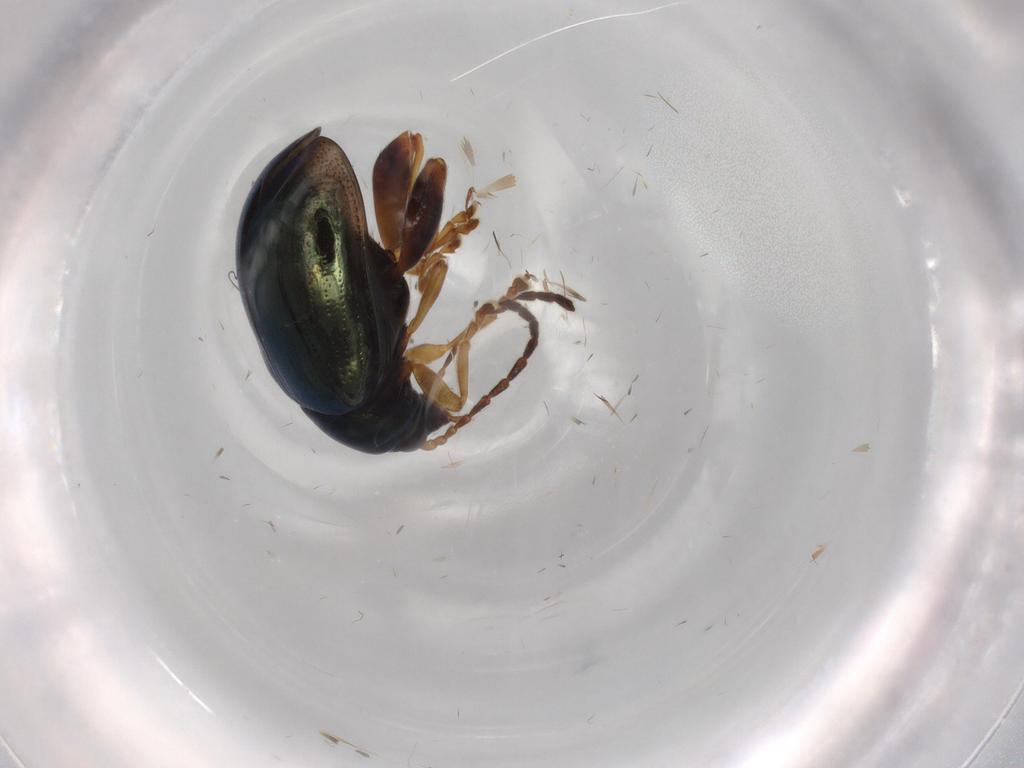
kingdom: Animalia
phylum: Arthropoda
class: Insecta
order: Coleoptera
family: Chrysomelidae
